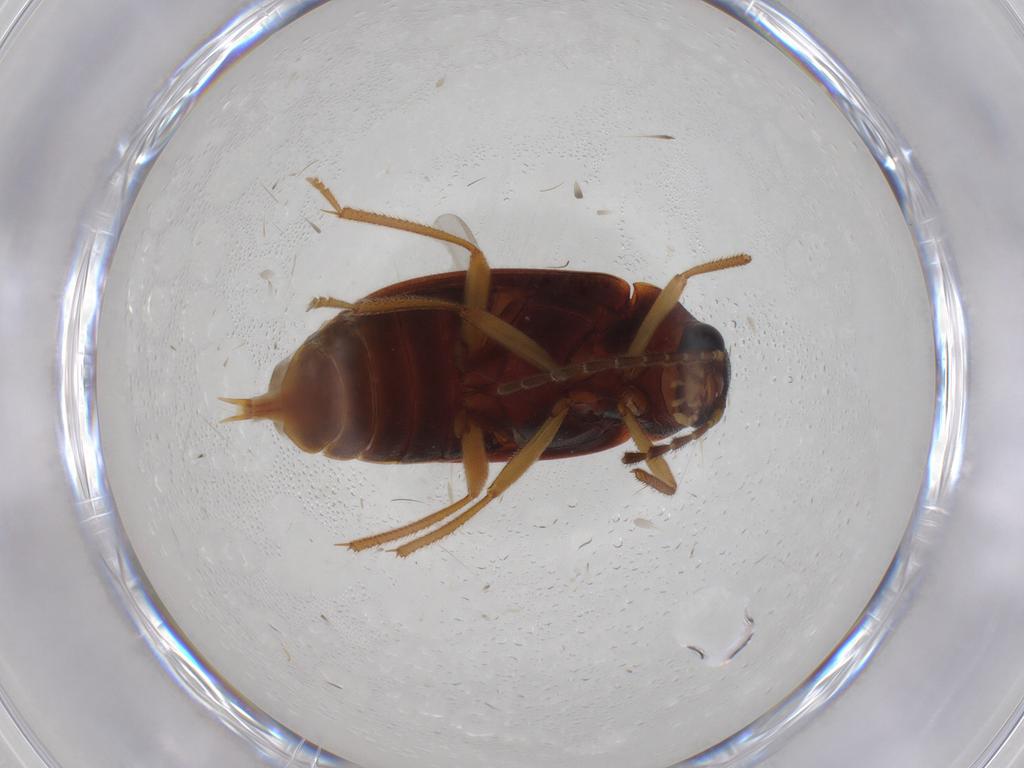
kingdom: Animalia
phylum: Arthropoda
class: Insecta
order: Coleoptera
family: Ptilodactylidae
